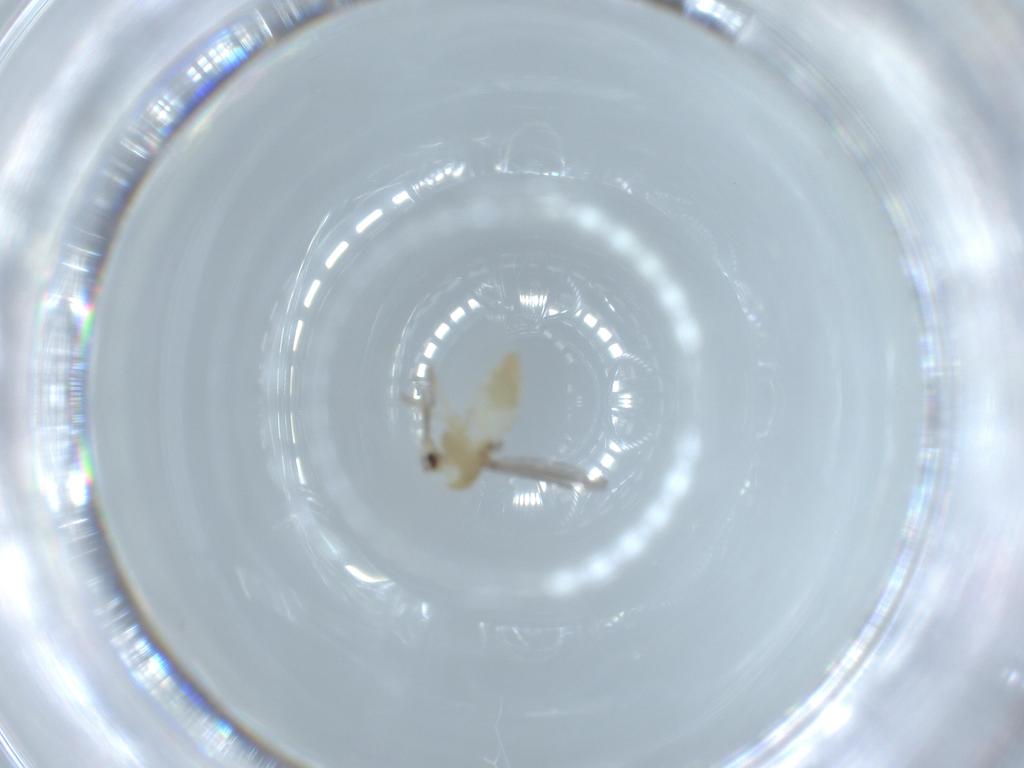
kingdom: Animalia
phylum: Arthropoda
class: Insecta
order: Diptera
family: Chironomidae
